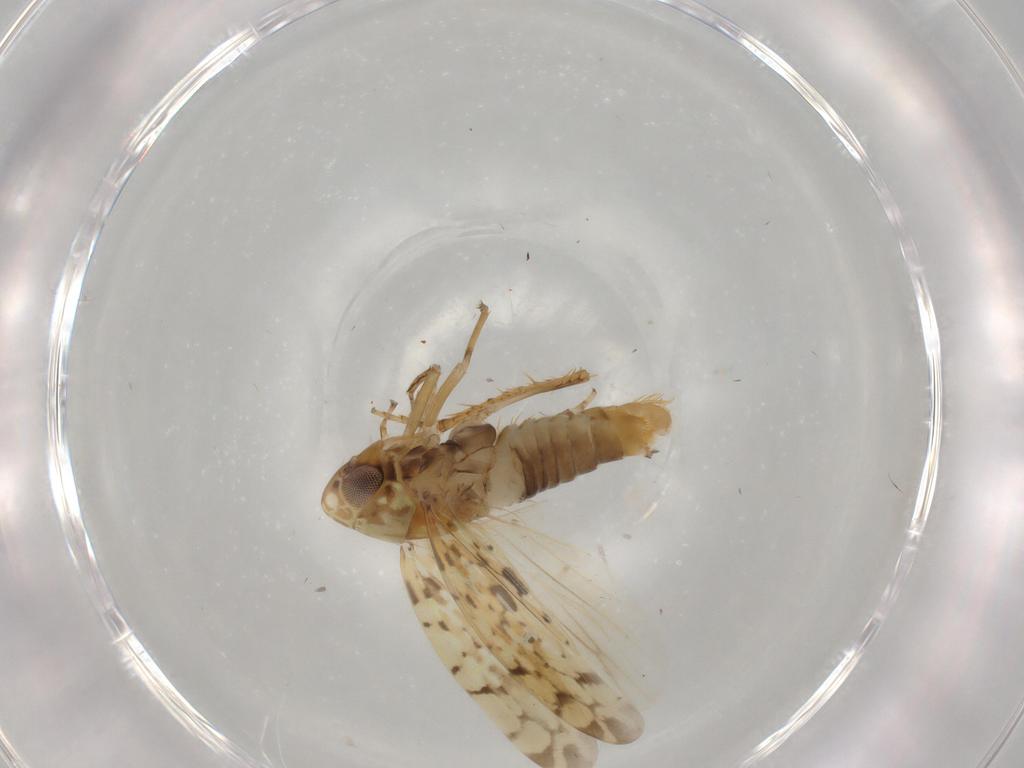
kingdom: Animalia
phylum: Arthropoda
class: Insecta
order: Hemiptera
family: Cicadellidae
